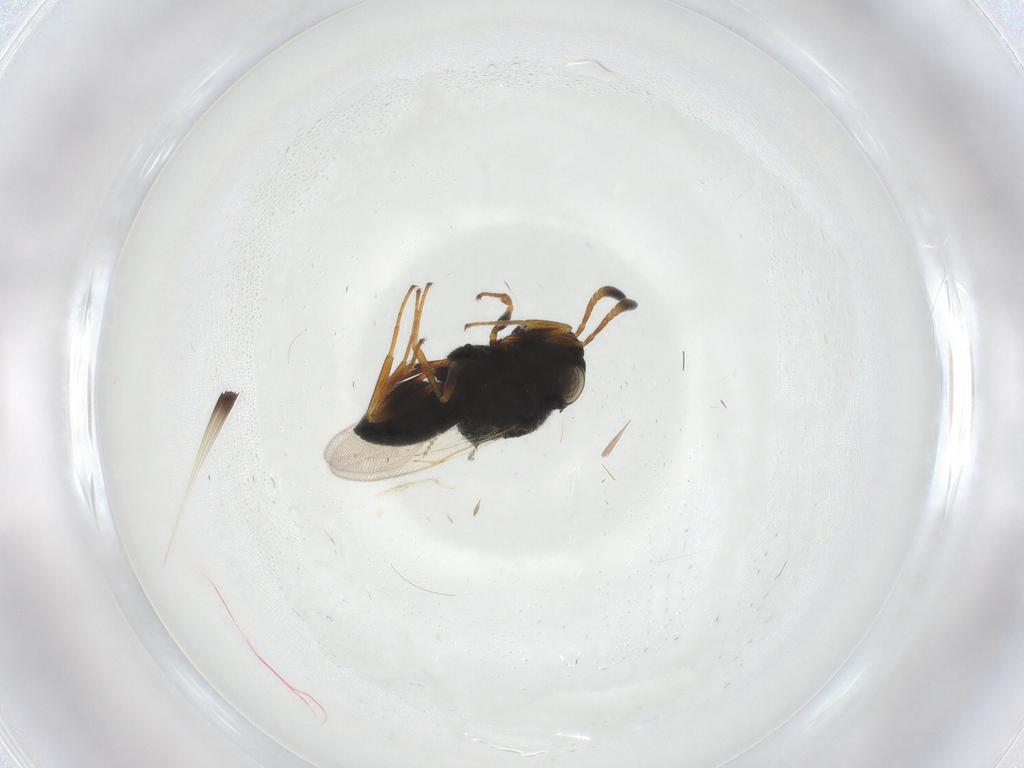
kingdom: Animalia
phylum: Arthropoda
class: Insecta
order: Hymenoptera
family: Scelionidae
